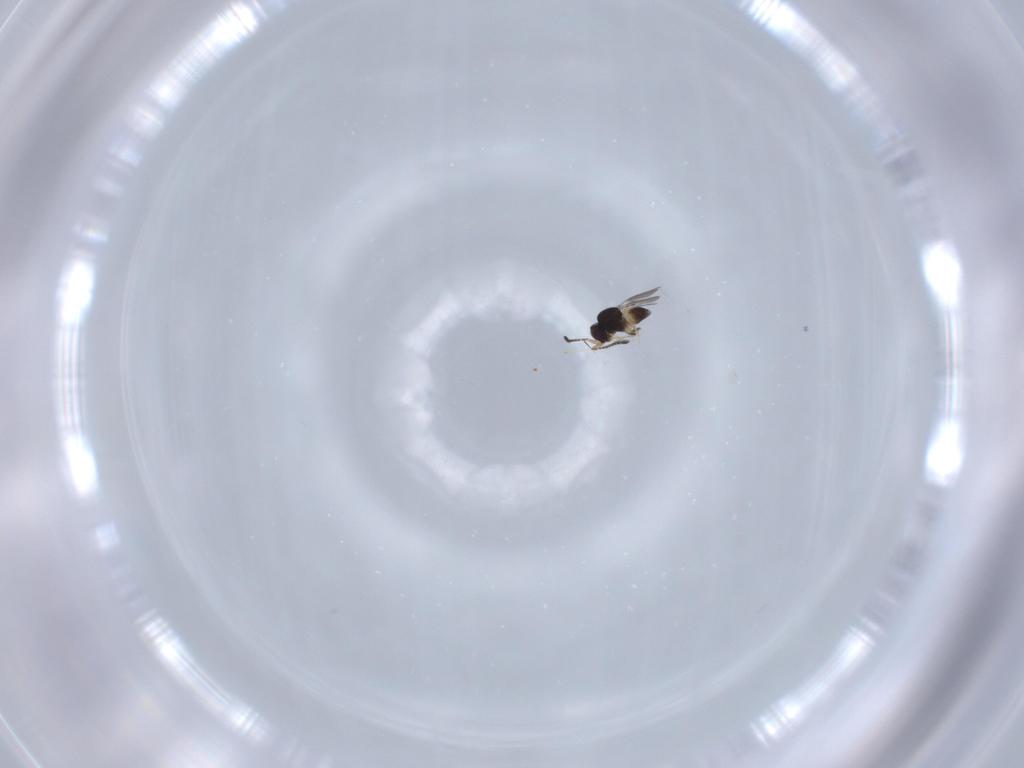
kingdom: Animalia
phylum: Arthropoda
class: Insecta
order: Hymenoptera
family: Ceraphronidae
